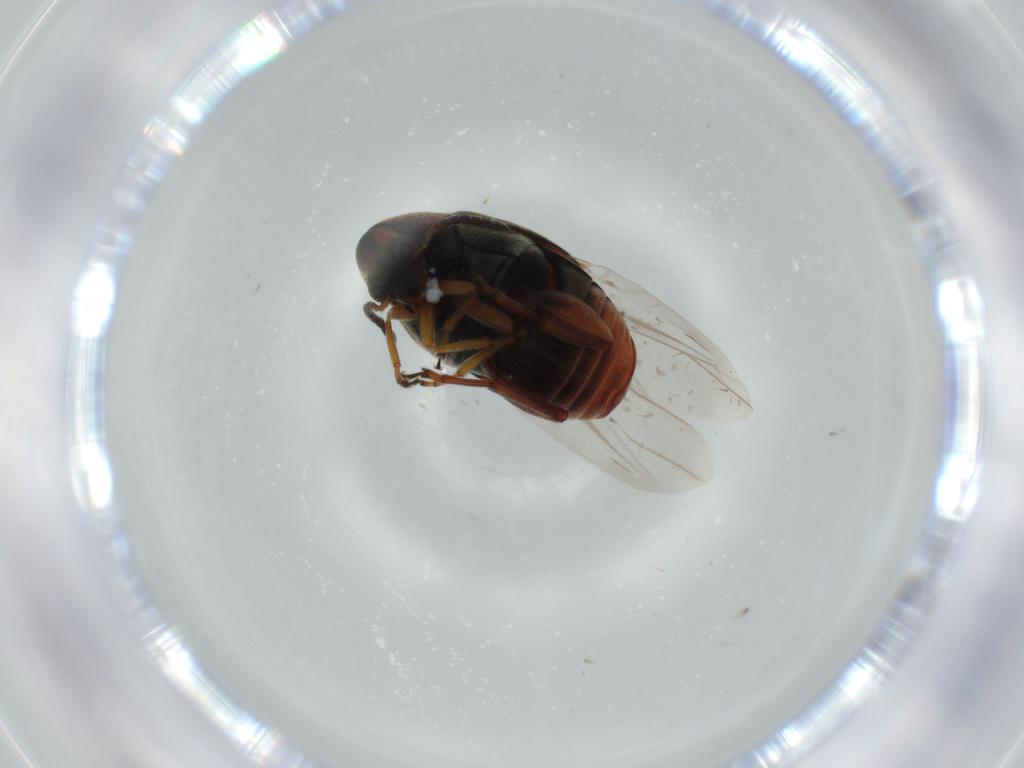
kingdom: Animalia
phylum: Arthropoda
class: Insecta
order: Coleoptera
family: Chrysomelidae
